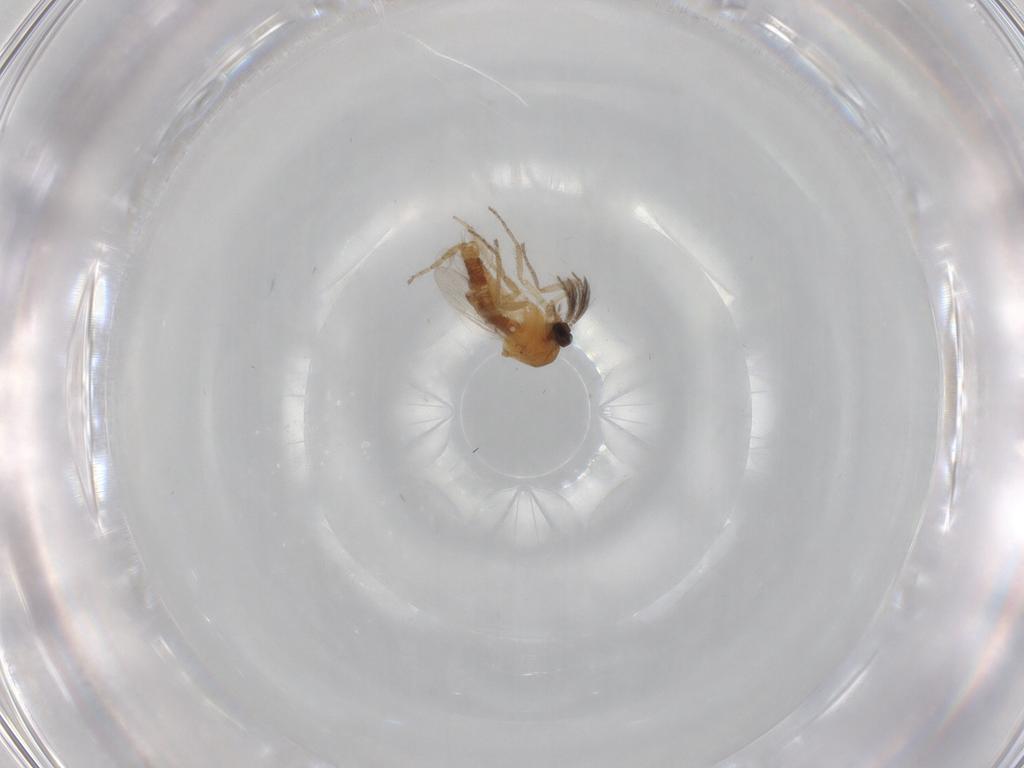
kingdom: Animalia
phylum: Arthropoda
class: Insecta
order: Diptera
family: Ceratopogonidae
